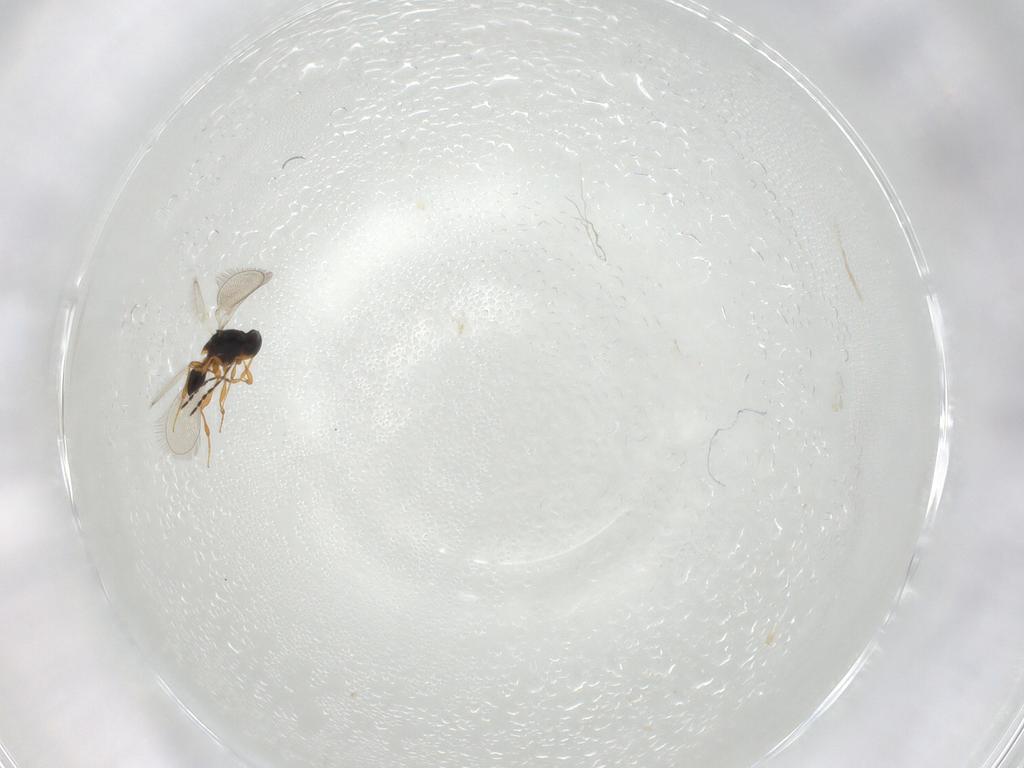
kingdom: Animalia
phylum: Arthropoda
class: Insecta
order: Hymenoptera
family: Platygastridae
